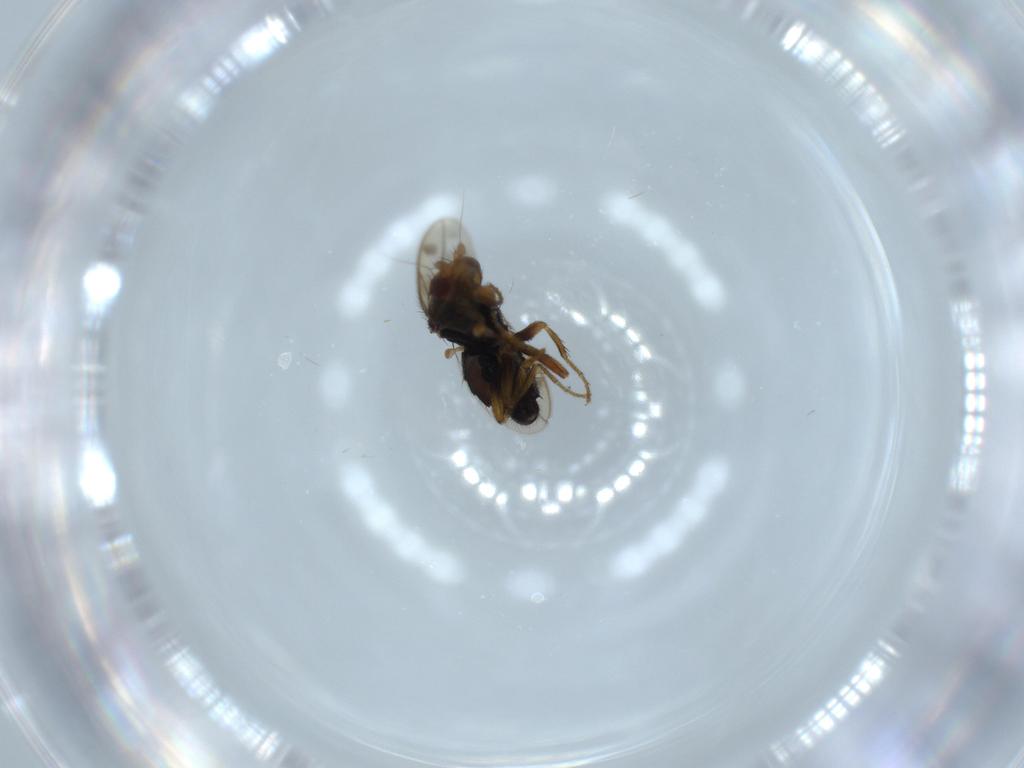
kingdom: Animalia
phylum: Arthropoda
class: Insecta
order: Diptera
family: Sphaeroceridae
